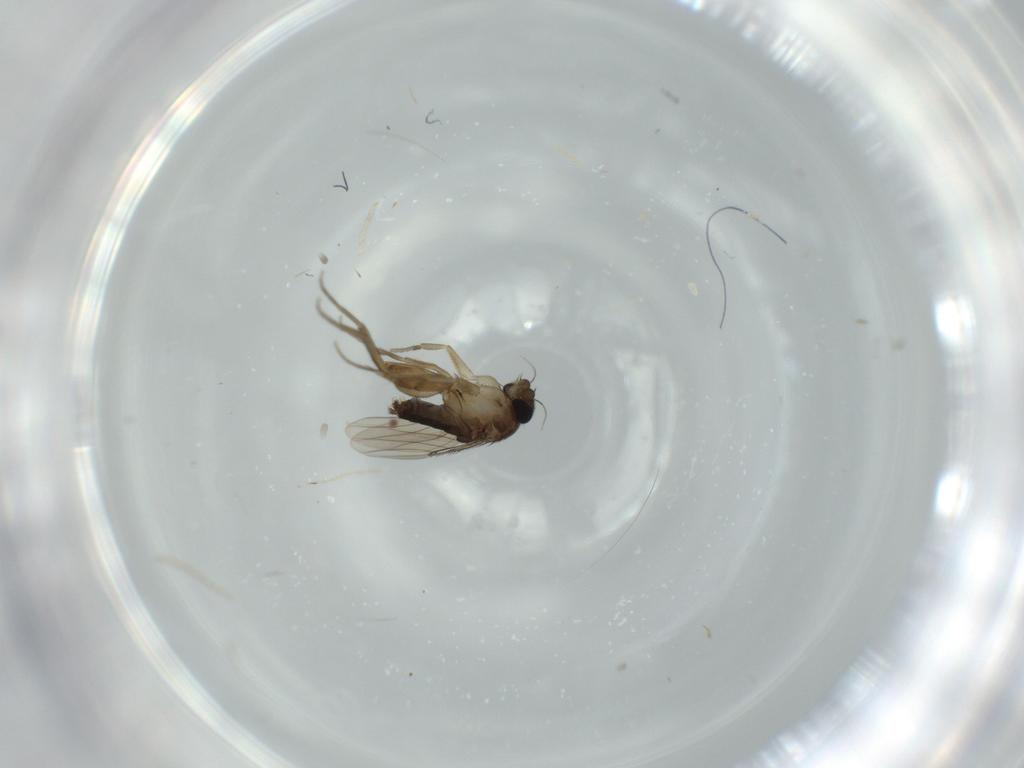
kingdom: Animalia
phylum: Arthropoda
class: Insecta
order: Diptera
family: Phoridae
